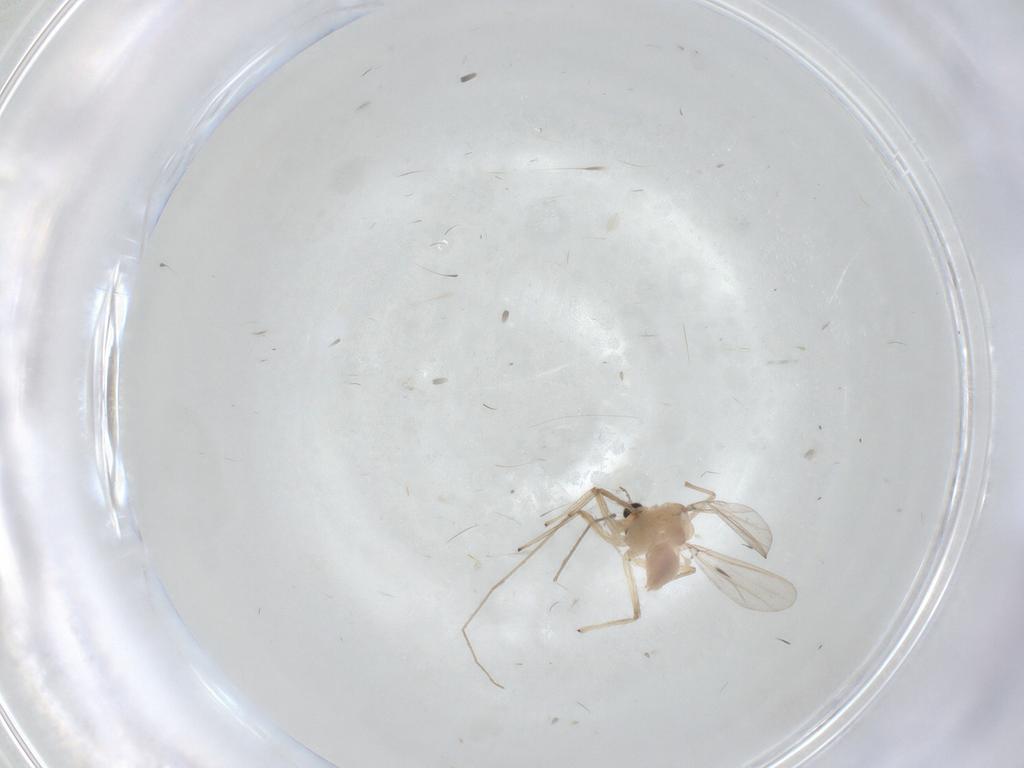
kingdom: Animalia
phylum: Arthropoda
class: Insecta
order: Diptera
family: Chironomidae
